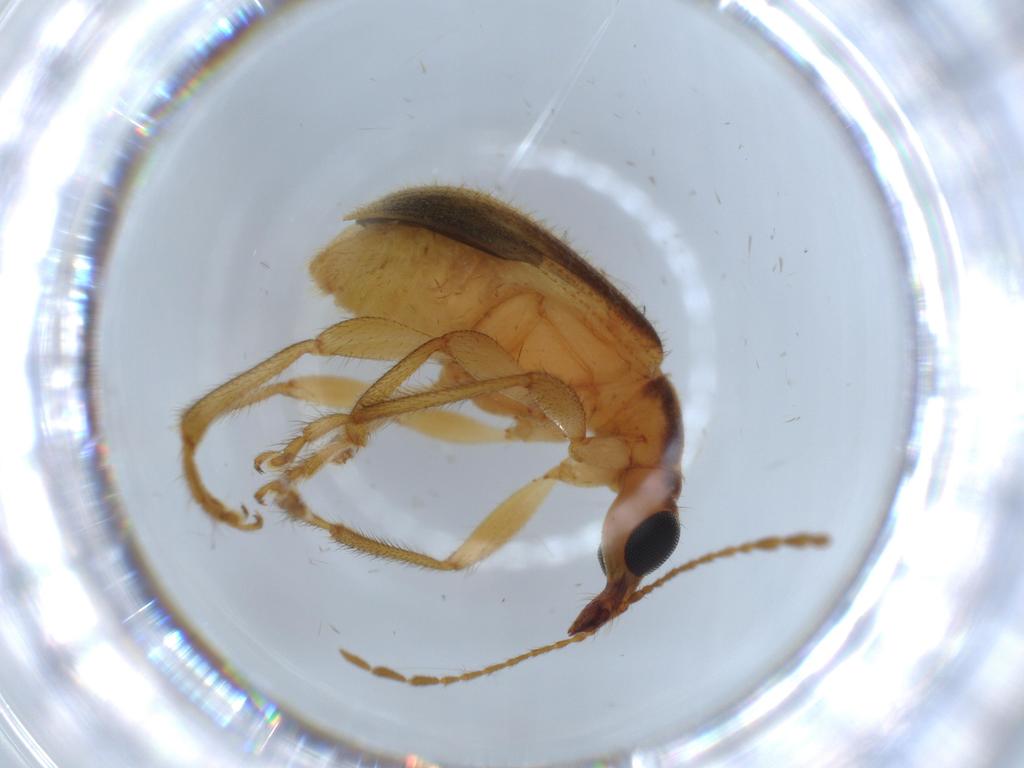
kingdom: Animalia
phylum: Arthropoda
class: Insecta
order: Coleoptera
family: Attelabidae
